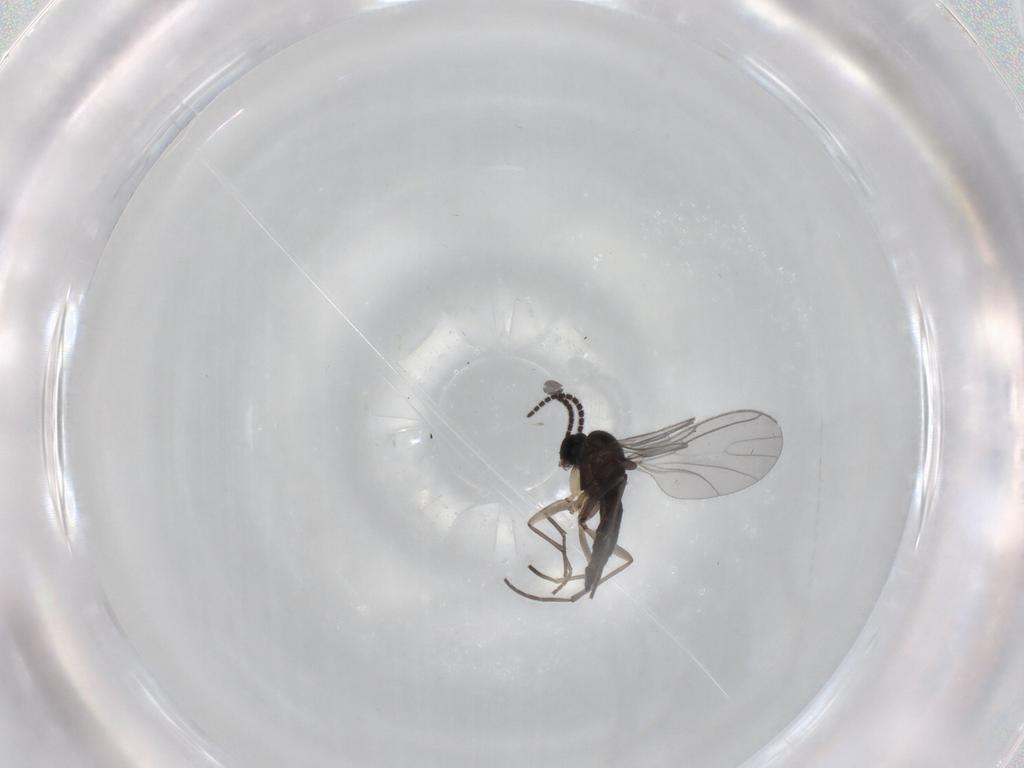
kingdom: Animalia
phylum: Arthropoda
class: Insecta
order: Diptera
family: Sciaridae
